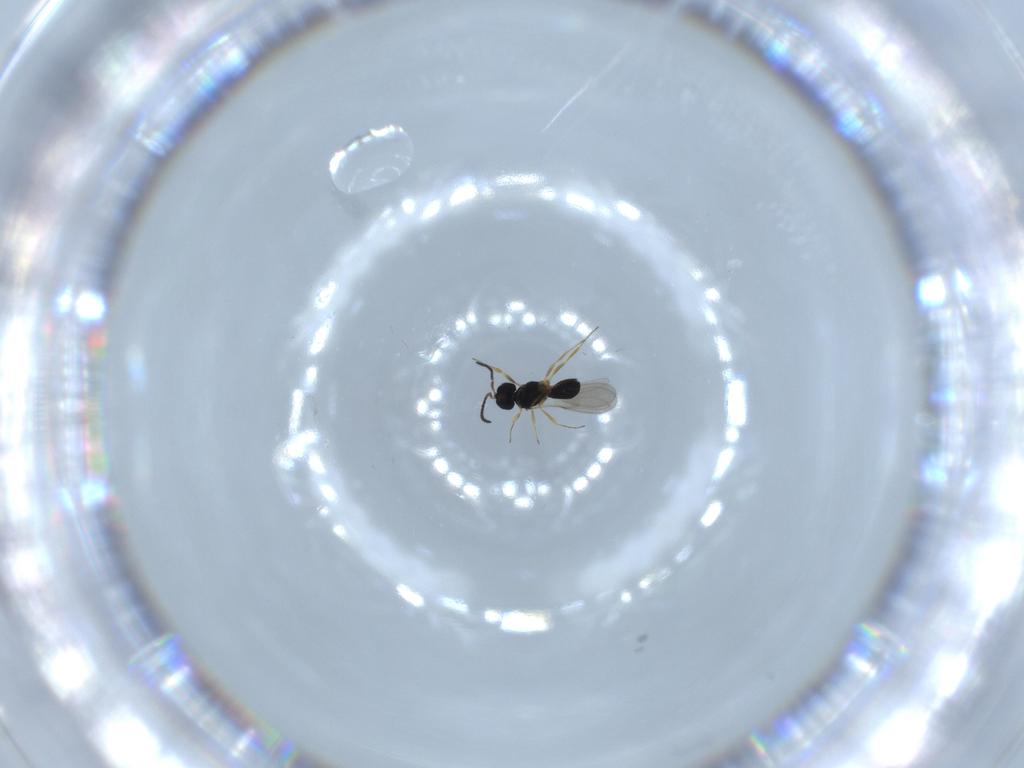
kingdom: Animalia
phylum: Arthropoda
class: Insecta
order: Hymenoptera
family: Scelionidae
